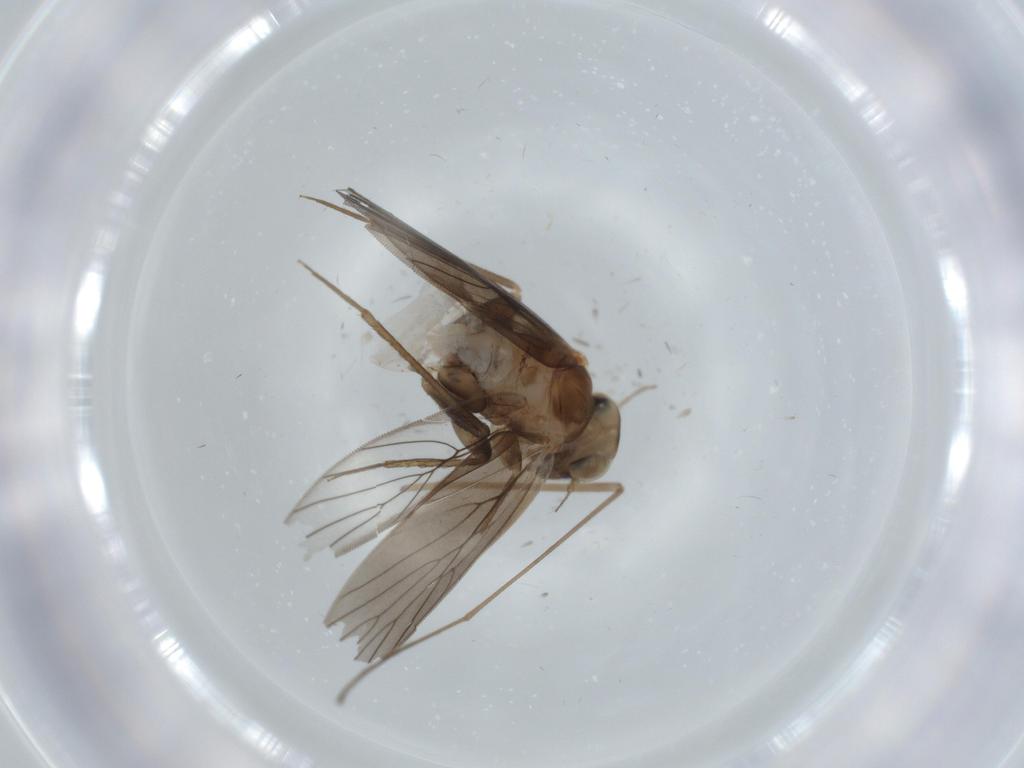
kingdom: Animalia
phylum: Arthropoda
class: Insecta
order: Psocodea
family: Lepidopsocidae
